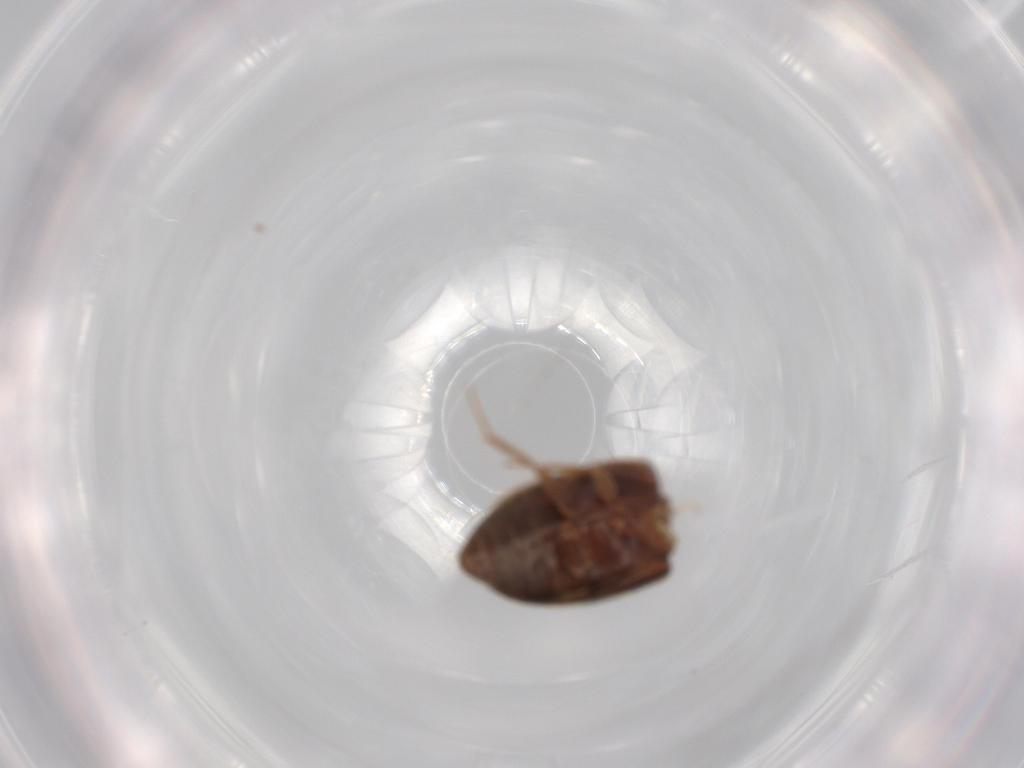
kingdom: Animalia
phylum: Arthropoda
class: Insecta
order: Coleoptera
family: Mycetophagidae
